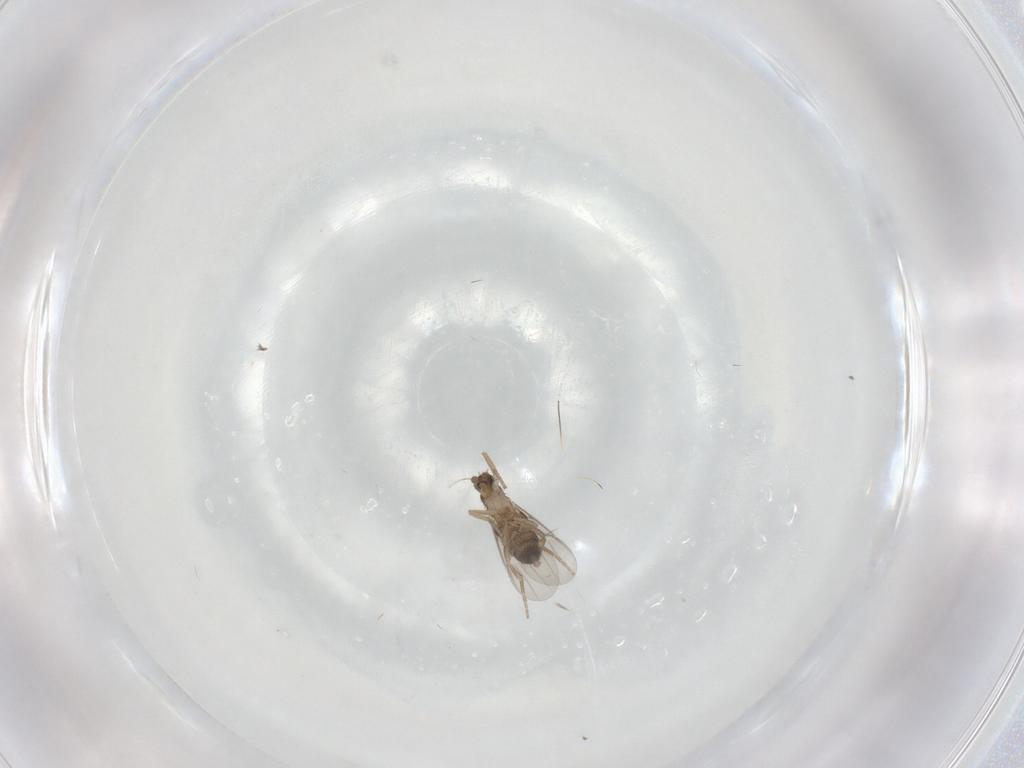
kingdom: Animalia
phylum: Arthropoda
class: Insecta
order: Diptera
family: Phoridae
